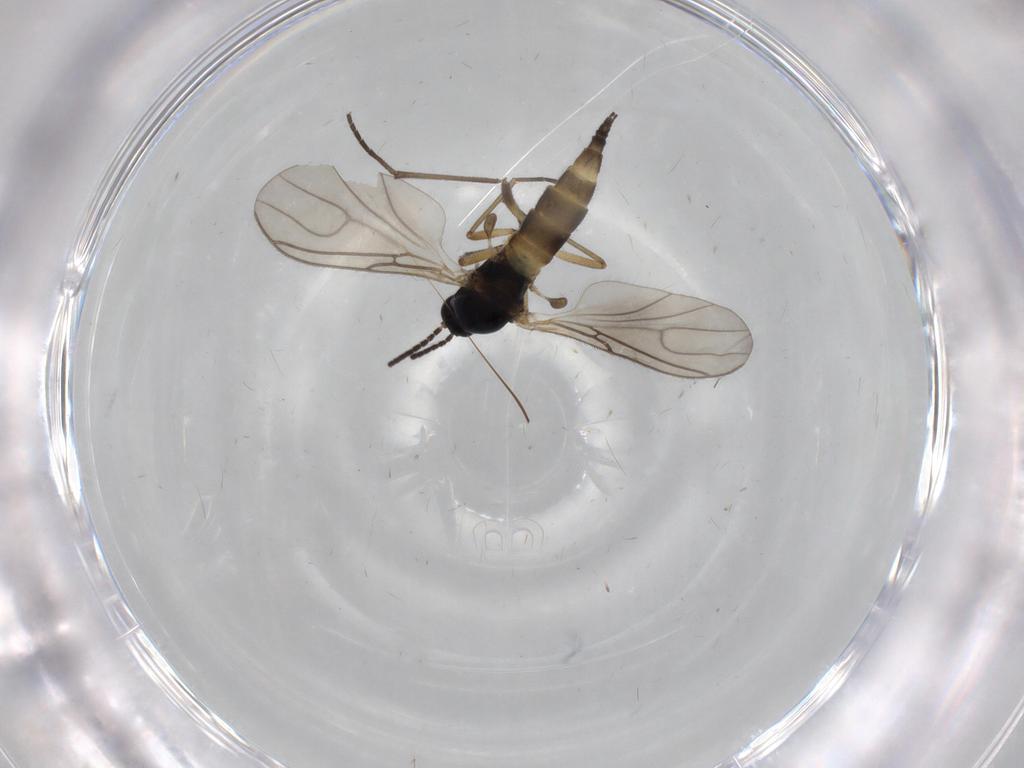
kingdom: Animalia
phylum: Arthropoda
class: Insecta
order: Diptera
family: Sciaridae
